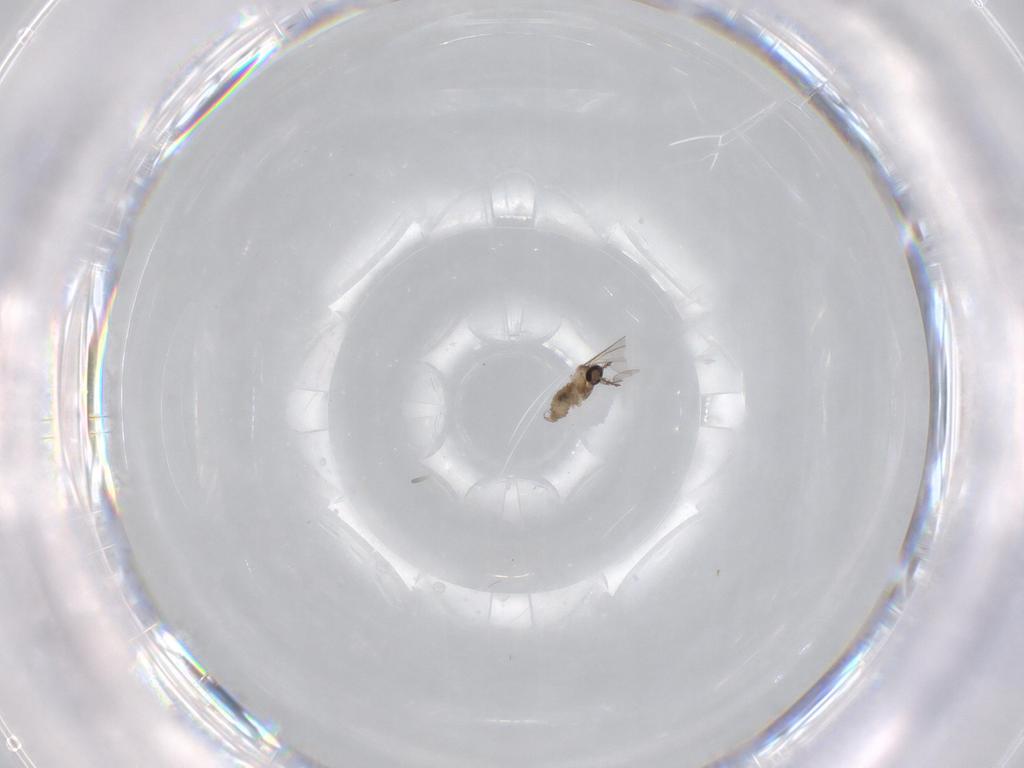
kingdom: Animalia
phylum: Arthropoda
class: Insecta
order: Diptera
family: Cecidomyiidae
